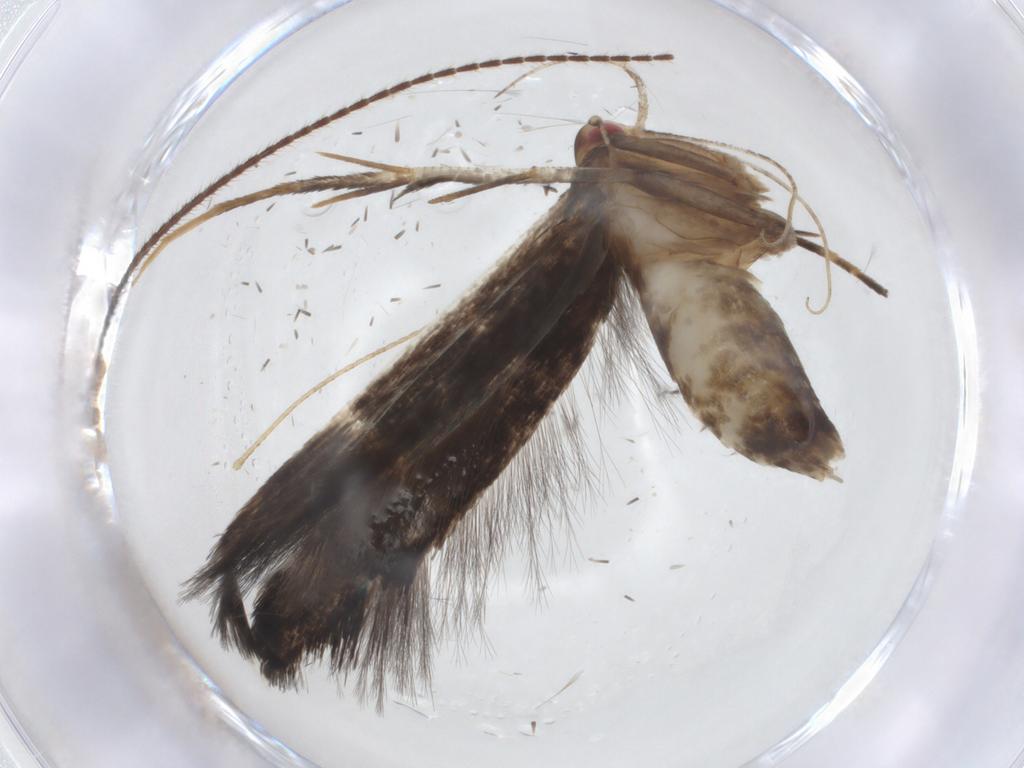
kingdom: Animalia
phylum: Arthropoda
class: Insecta
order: Lepidoptera
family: Cosmopterigidae
